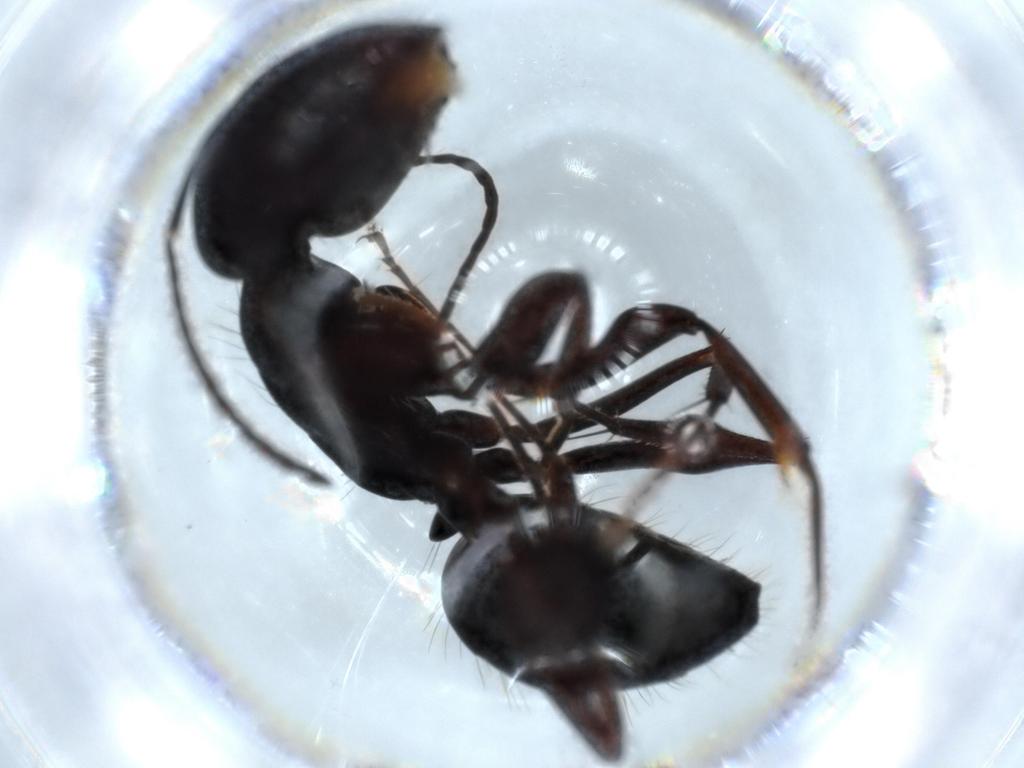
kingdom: Animalia
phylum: Arthropoda
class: Insecta
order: Hymenoptera
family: Formicidae
